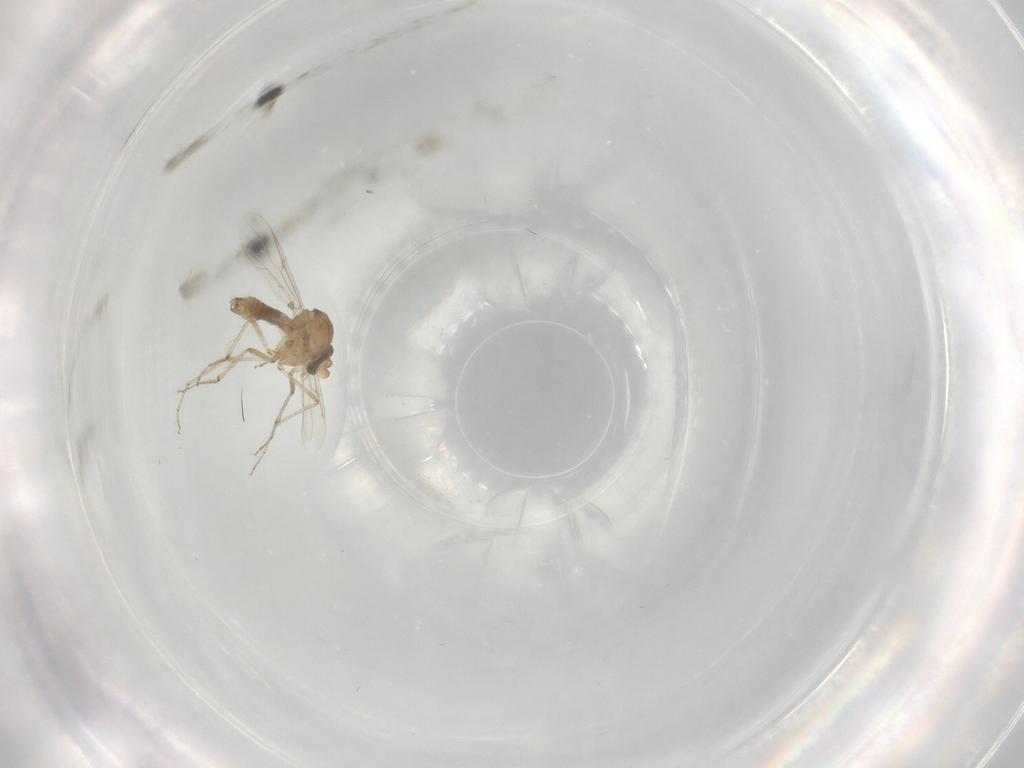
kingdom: Animalia
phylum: Arthropoda
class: Insecta
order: Diptera
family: Ceratopogonidae
